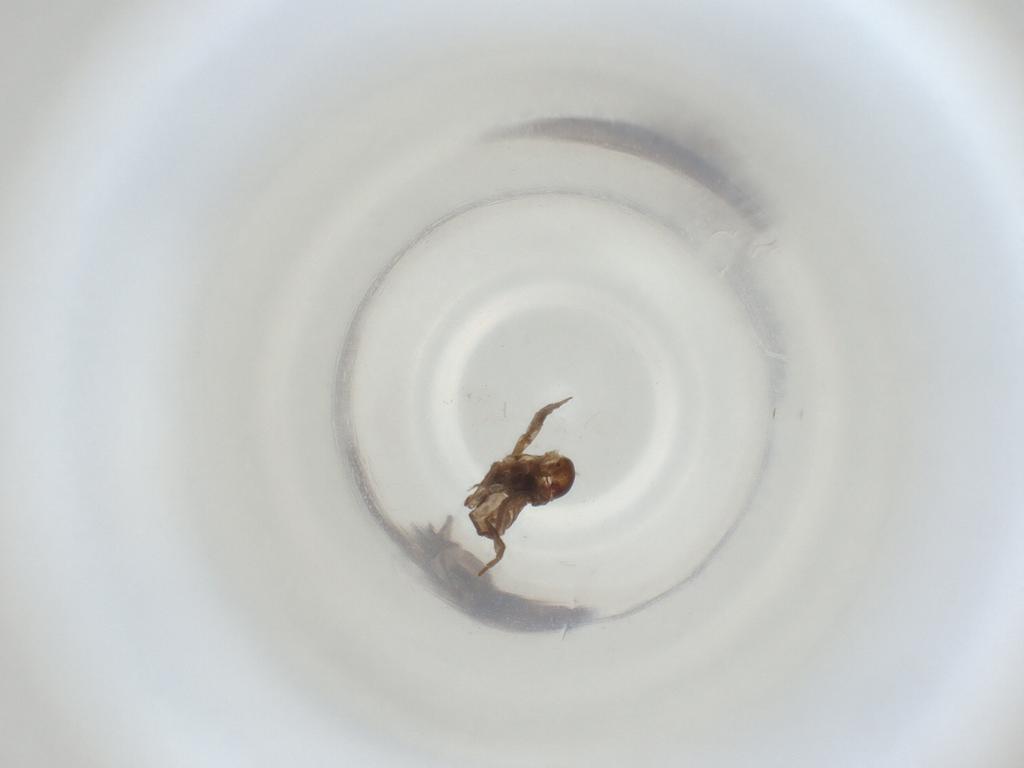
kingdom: Animalia
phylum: Arthropoda
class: Insecta
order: Diptera
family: Cecidomyiidae
